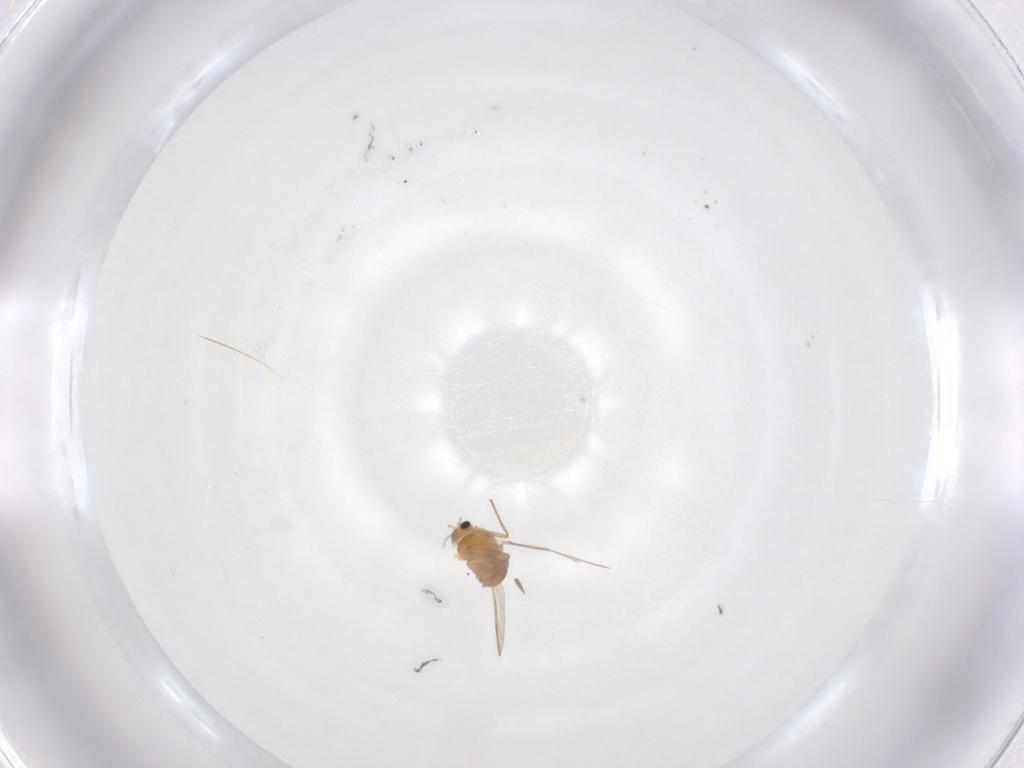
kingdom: Animalia
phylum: Arthropoda
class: Insecta
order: Diptera
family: Chironomidae
